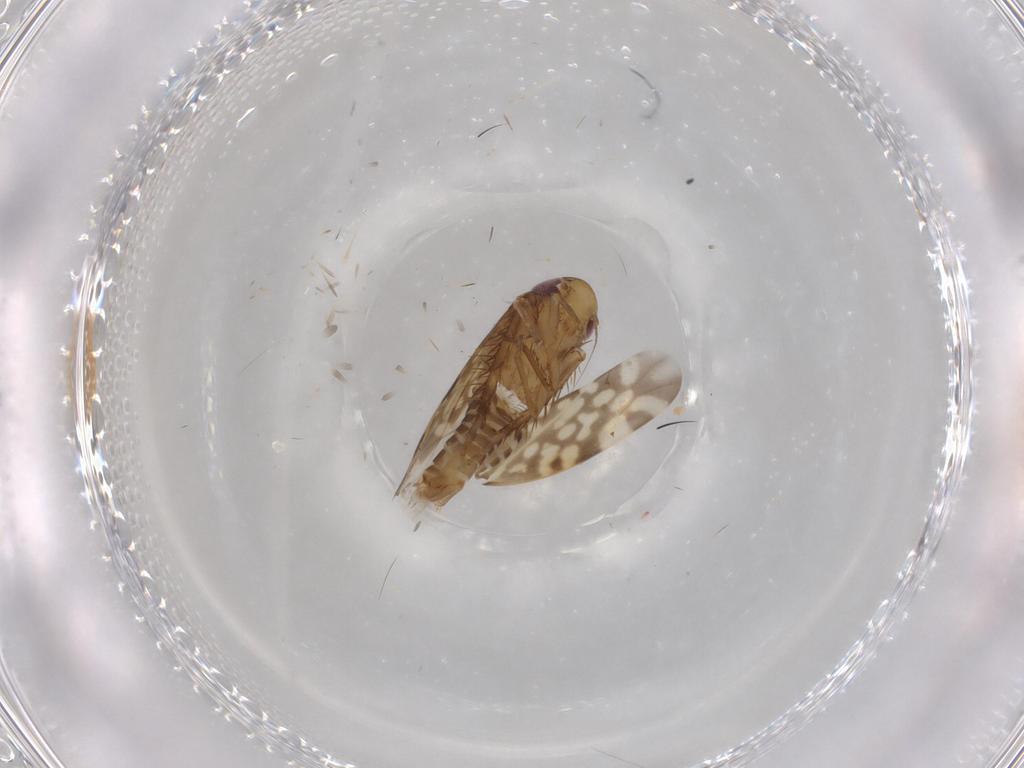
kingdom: Animalia
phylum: Arthropoda
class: Insecta
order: Hemiptera
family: Cicadellidae
